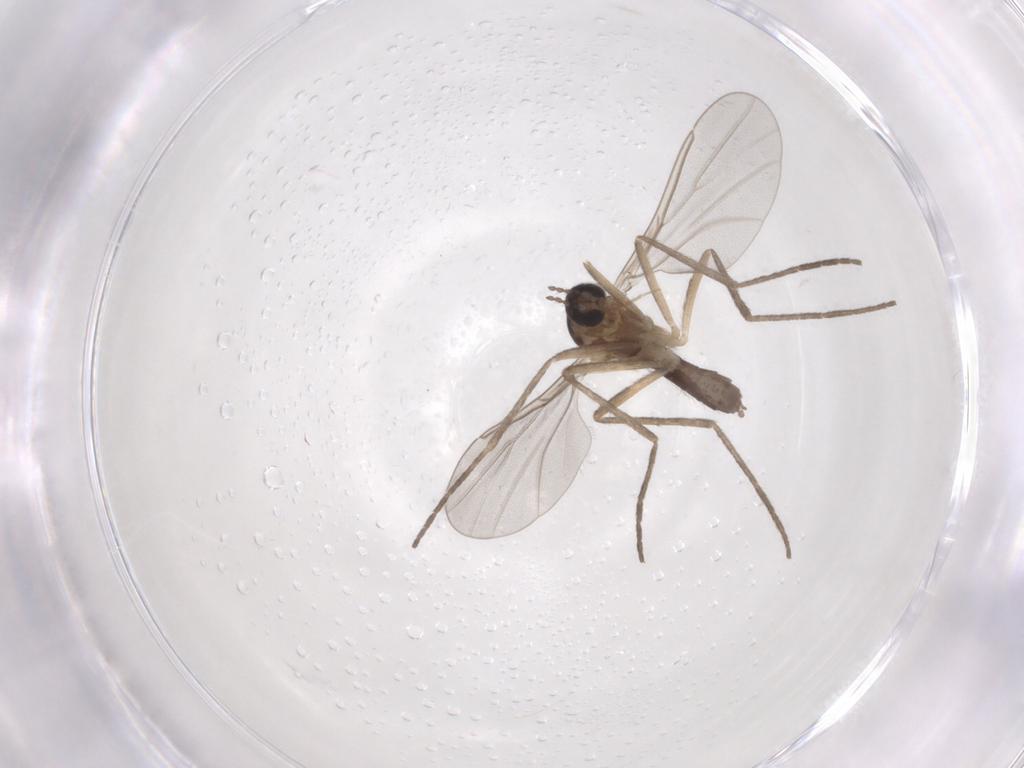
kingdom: Animalia
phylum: Arthropoda
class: Insecta
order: Diptera
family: Cecidomyiidae
